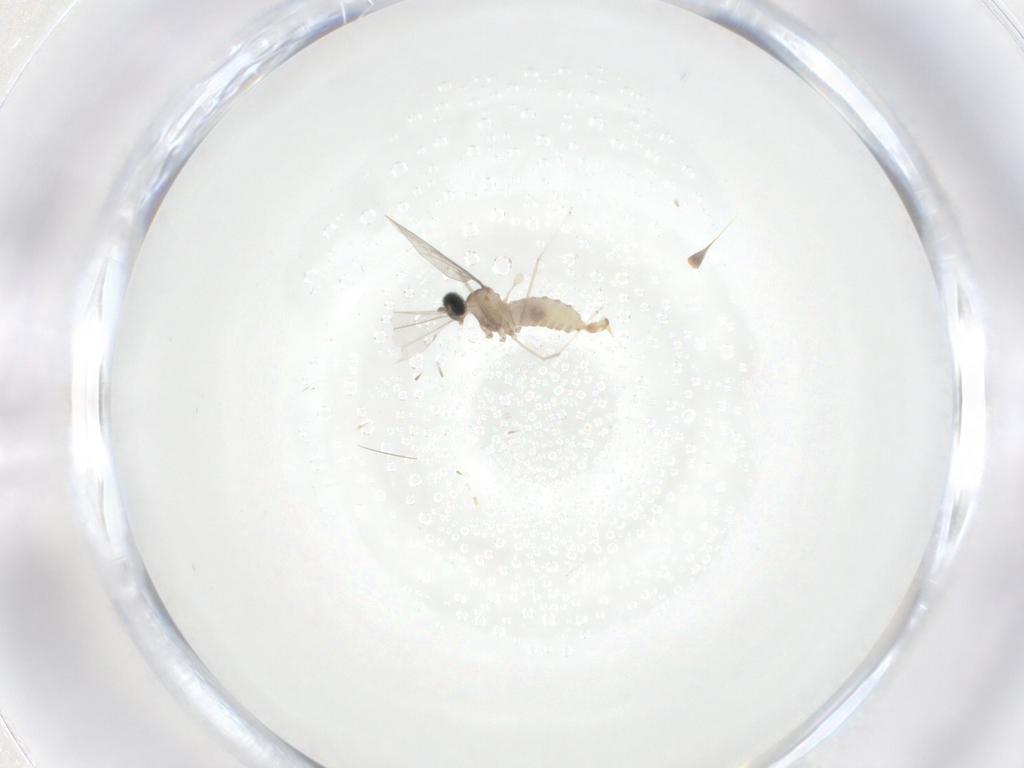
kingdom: Animalia
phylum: Arthropoda
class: Insecta
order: Diptera
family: Cecidomyiidae
